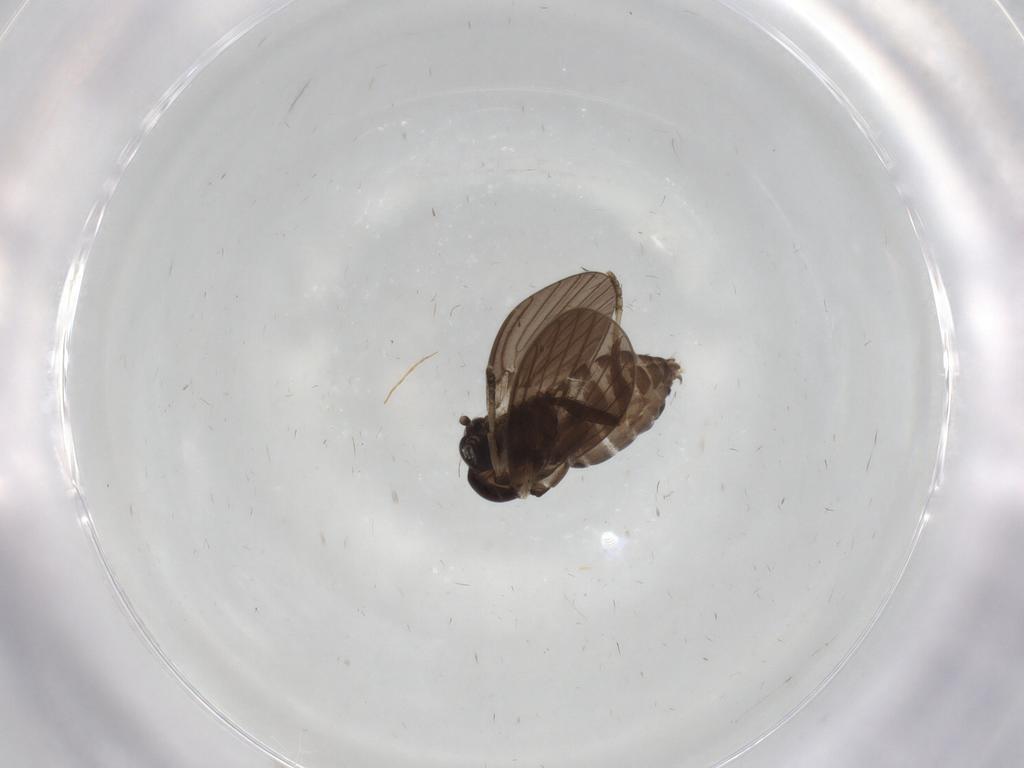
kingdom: Animalia
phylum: Arthropoda
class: Insecta
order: Diptera
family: Psychodidae
